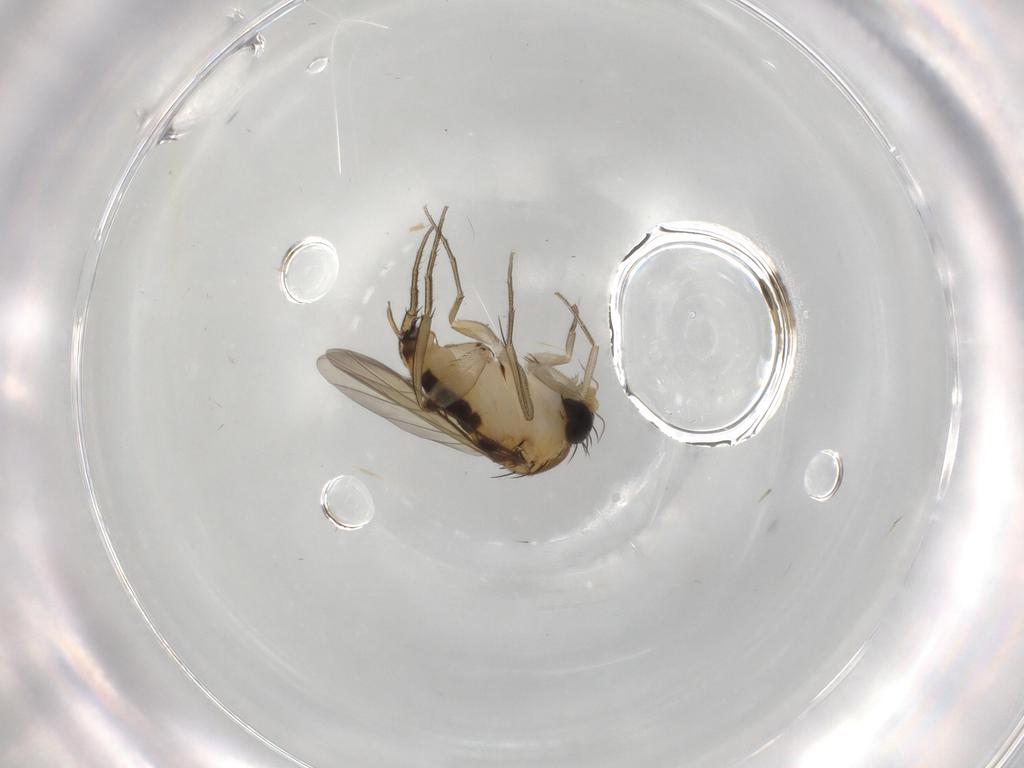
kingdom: Animalia
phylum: Arthropoda
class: Insecta
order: Diptera
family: Phoridae
